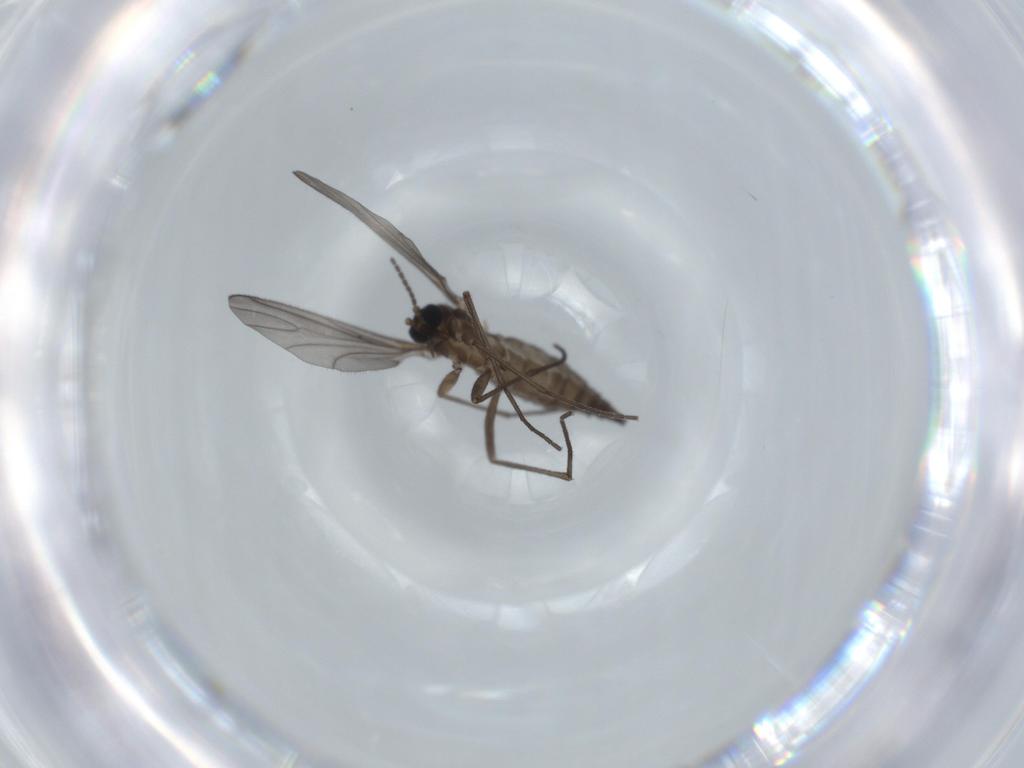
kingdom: Animalia
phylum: Arthropoda
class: Insecta
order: Diptera
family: Sciaridae
